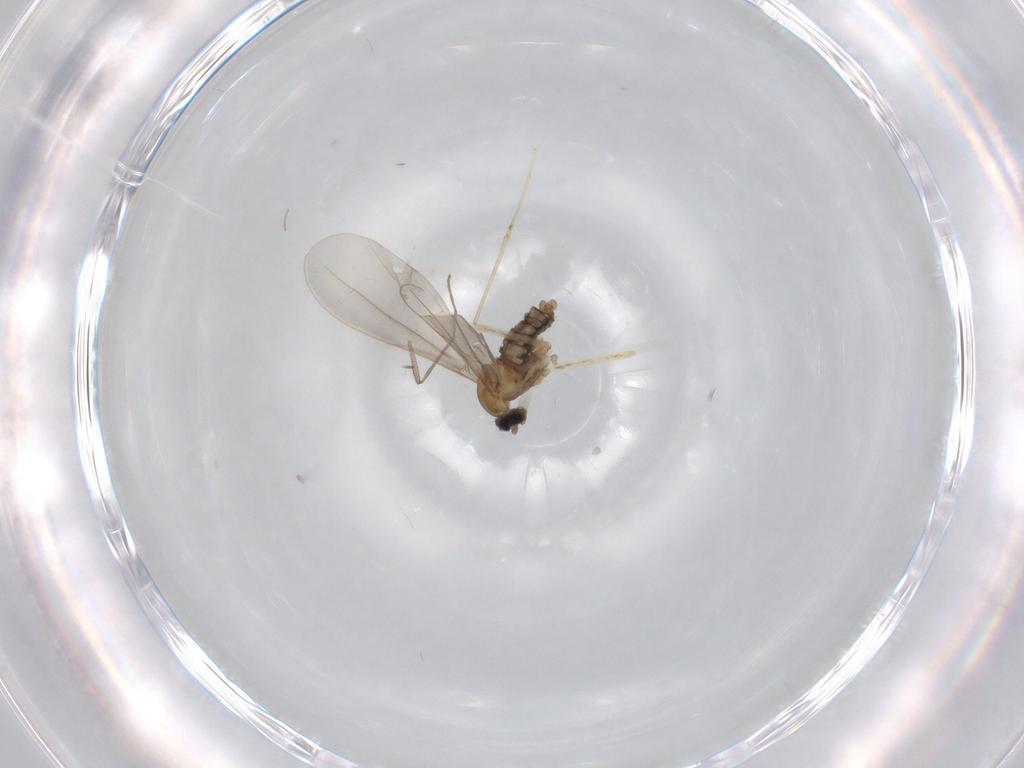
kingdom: Animalia
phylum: Arthropoda
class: Insecta
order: Diptera
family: Cecidomyiidae
